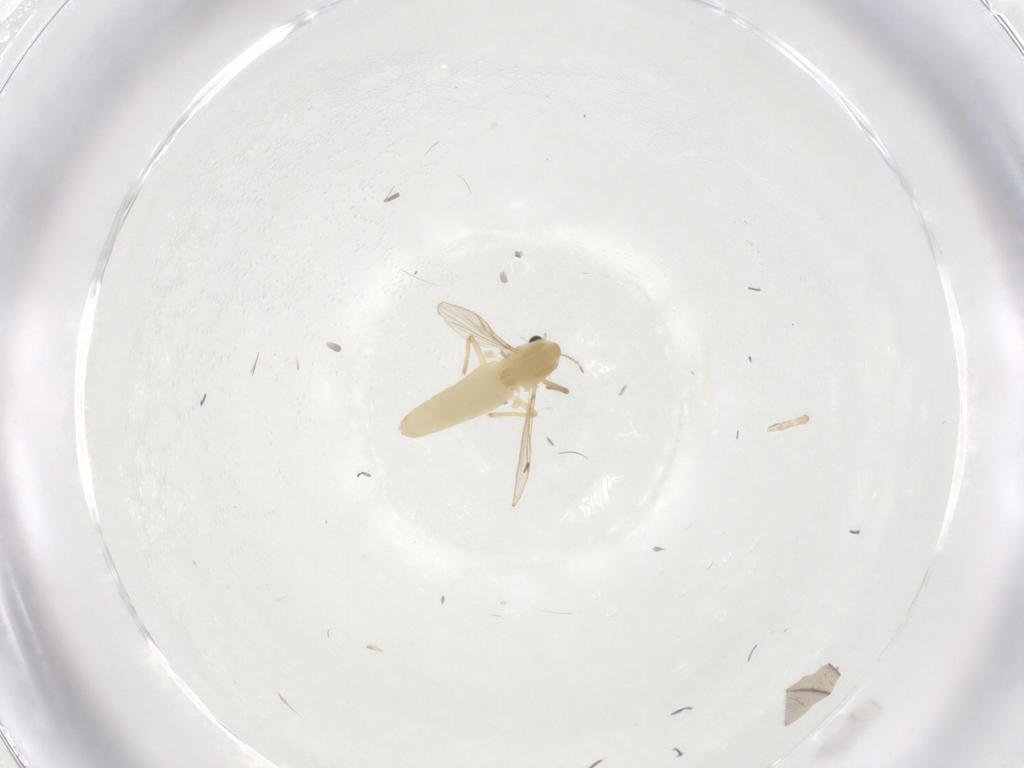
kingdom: Animalia
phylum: Arthropoda
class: Insecta
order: Diptera
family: Chironomidae
